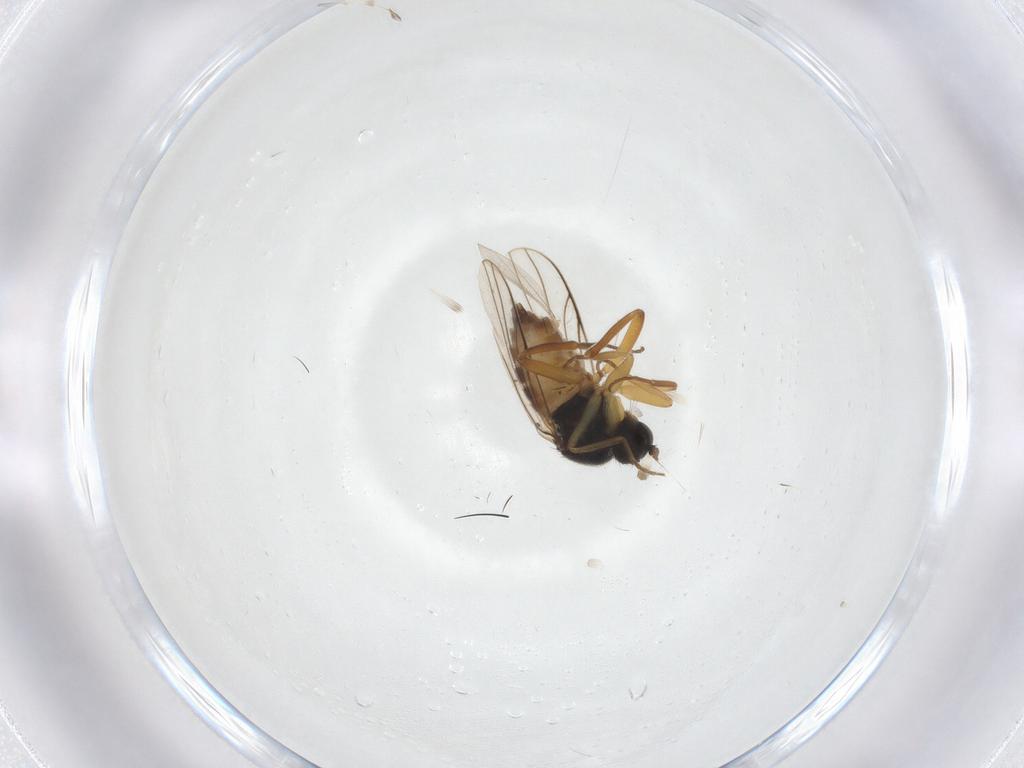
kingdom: Animalia
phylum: Arthropoda
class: Insecta
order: Diptera
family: Hybotidae
